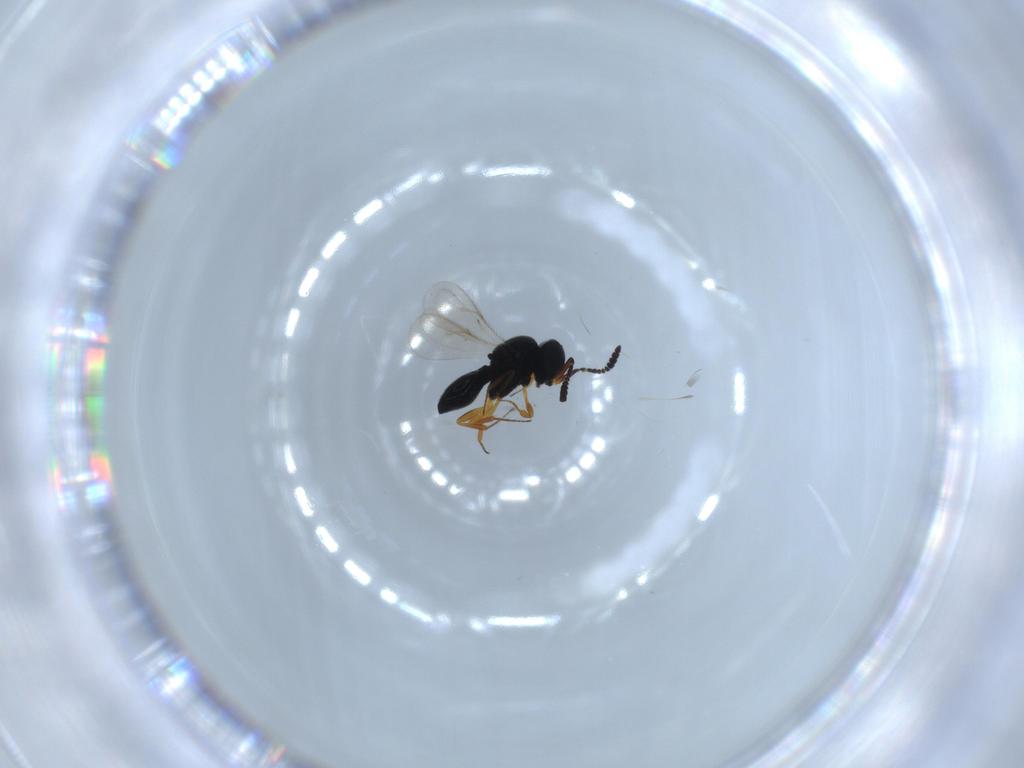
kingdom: Animalia
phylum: Arthropoda
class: Insecta
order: Hymenoptera
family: Scelionidae
